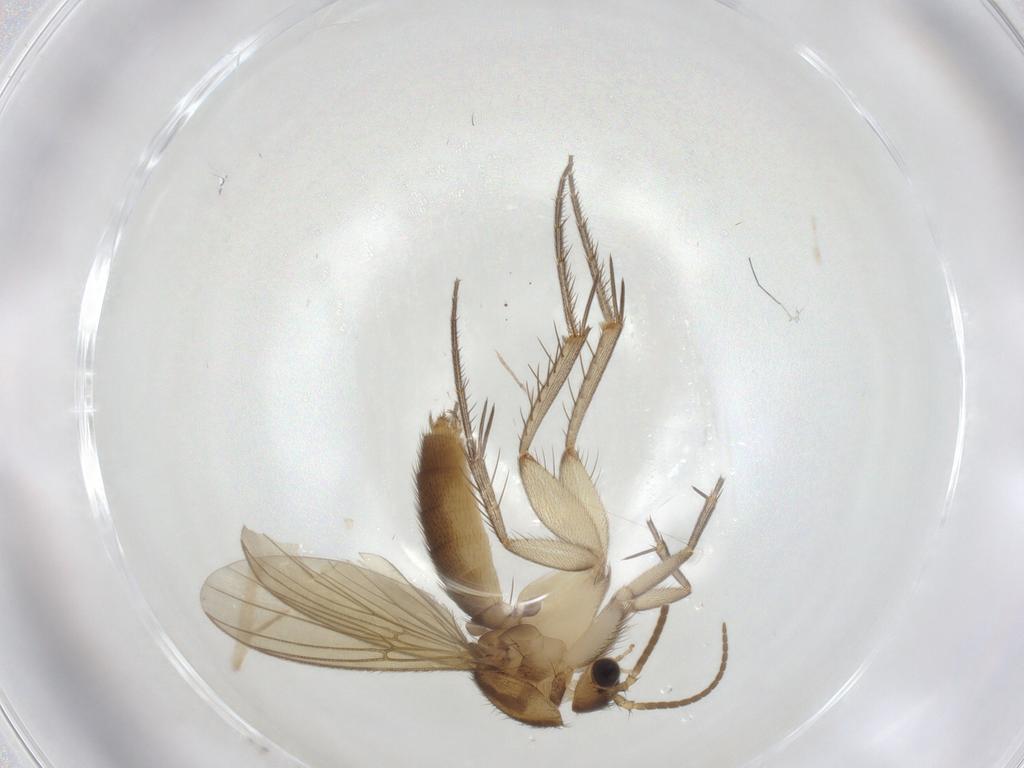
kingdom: Animalia
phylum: Arthropoda
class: Insecta
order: Diptera
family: Mycetophilidae
